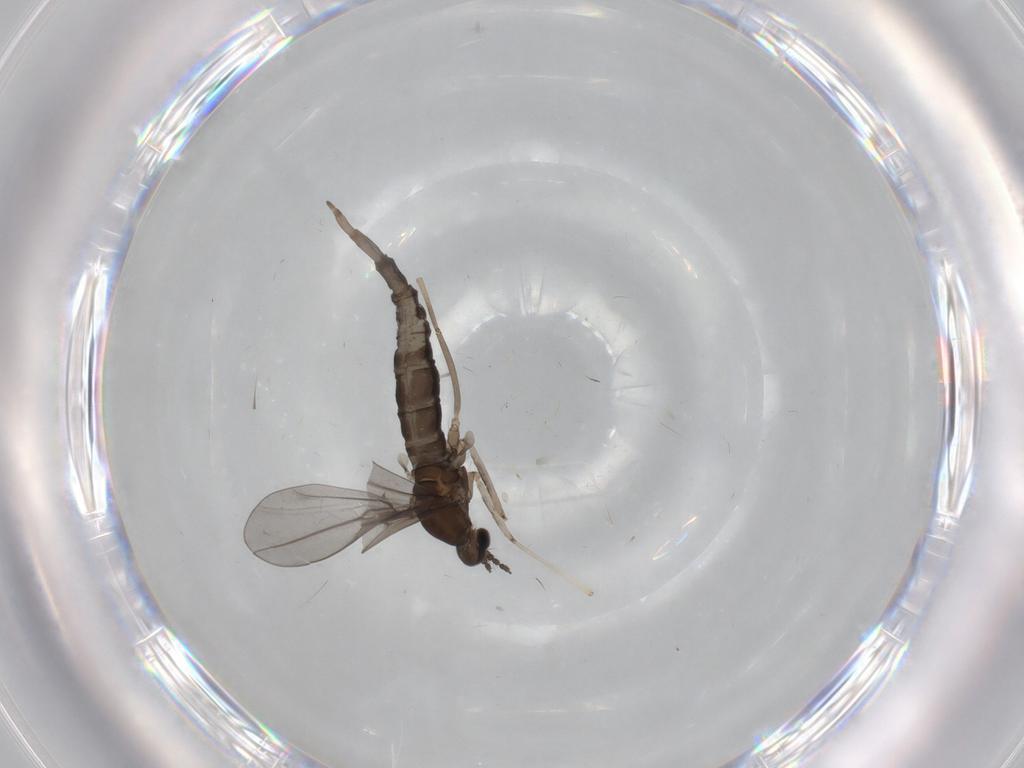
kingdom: Animalia
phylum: Arthropoda
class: Insecta
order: Diptera
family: Cecidomyiidae
